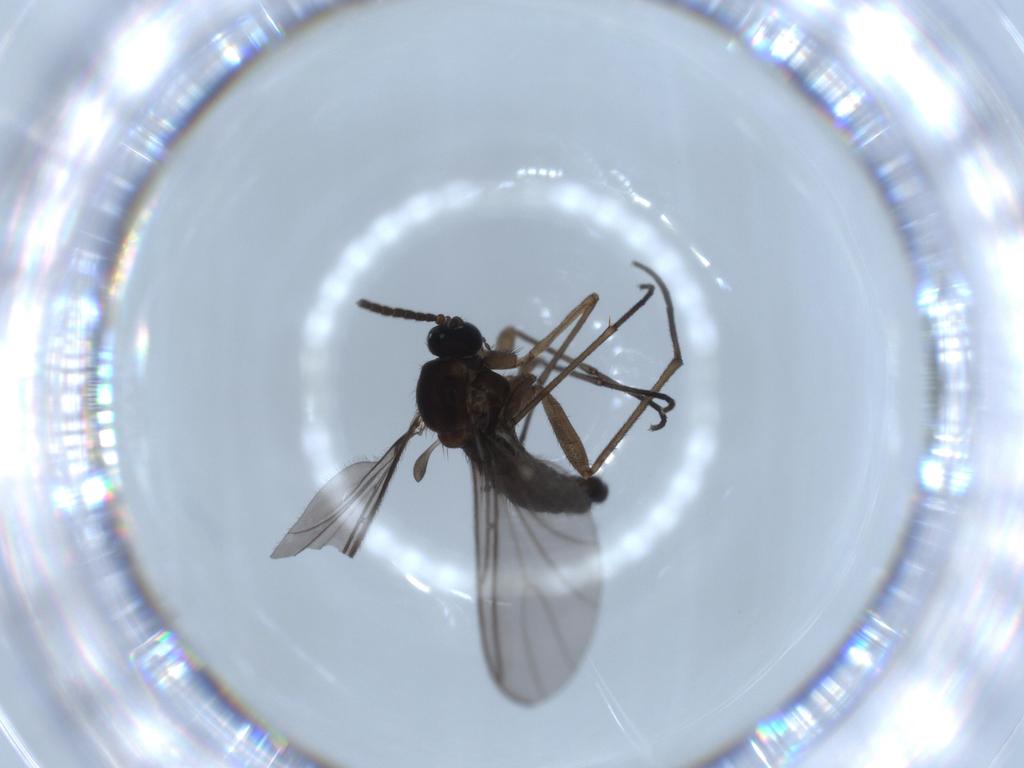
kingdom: Animalia
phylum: Arthropoda
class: Insecta
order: Diptera
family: Sciaridae
